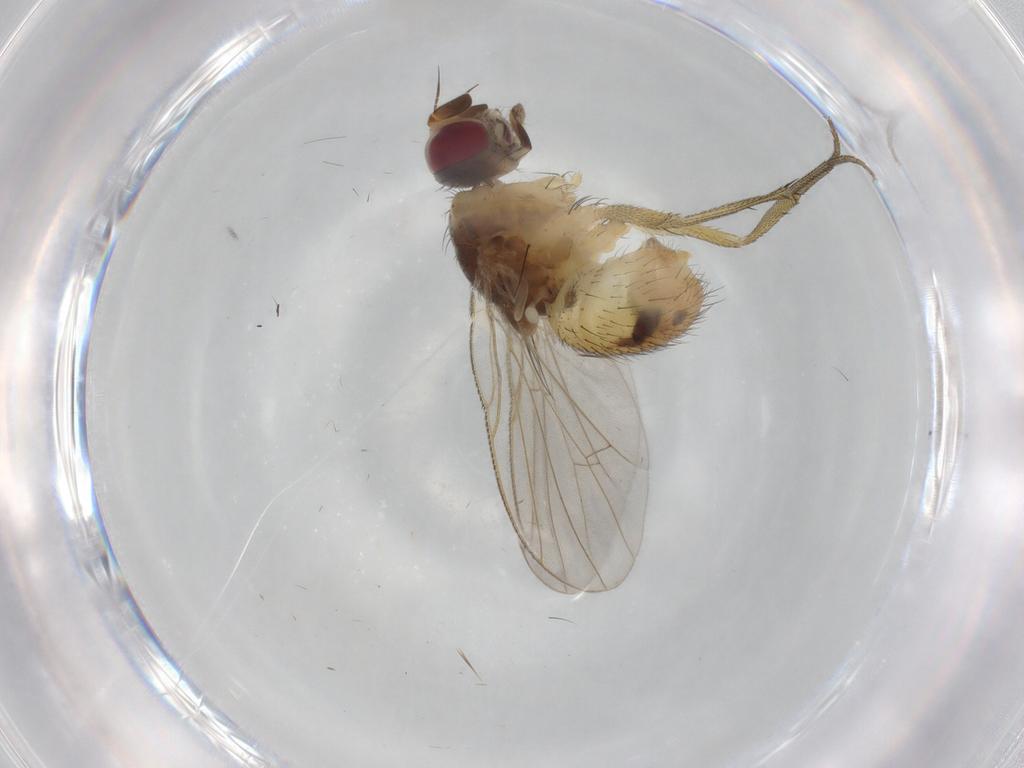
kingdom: Animalia
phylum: Arthropoda
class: Insecta
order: Diptera
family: Muscidae
